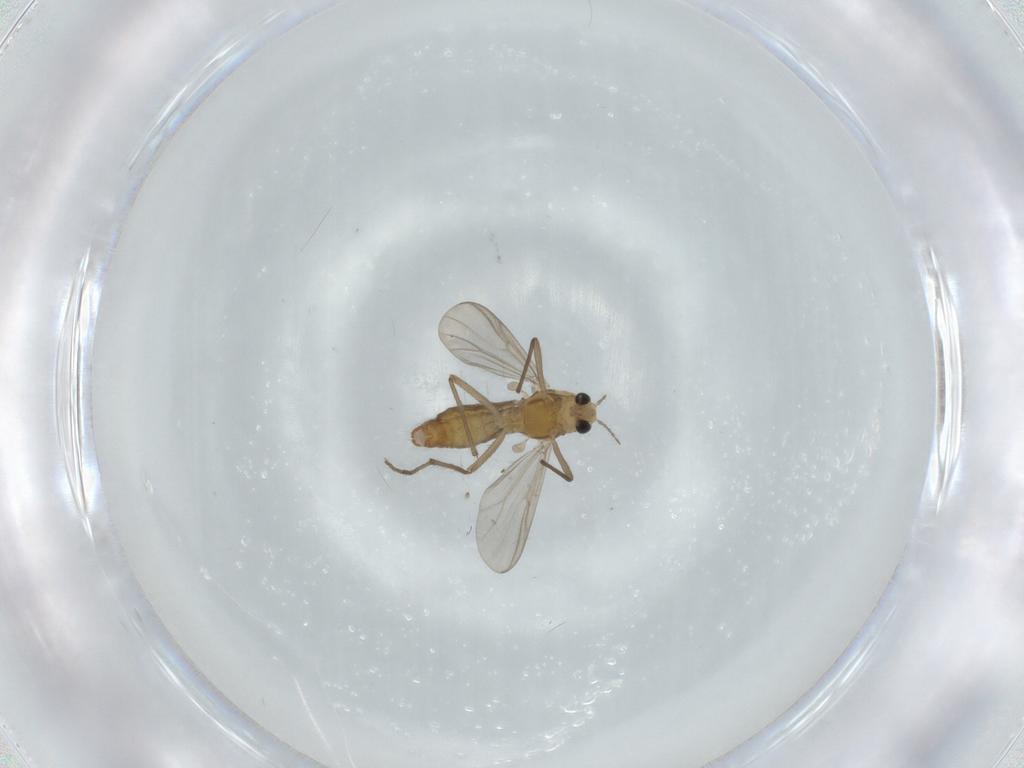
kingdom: Animalia
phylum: Arthropoda
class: Insecta
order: Diptera
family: Chironomidae
